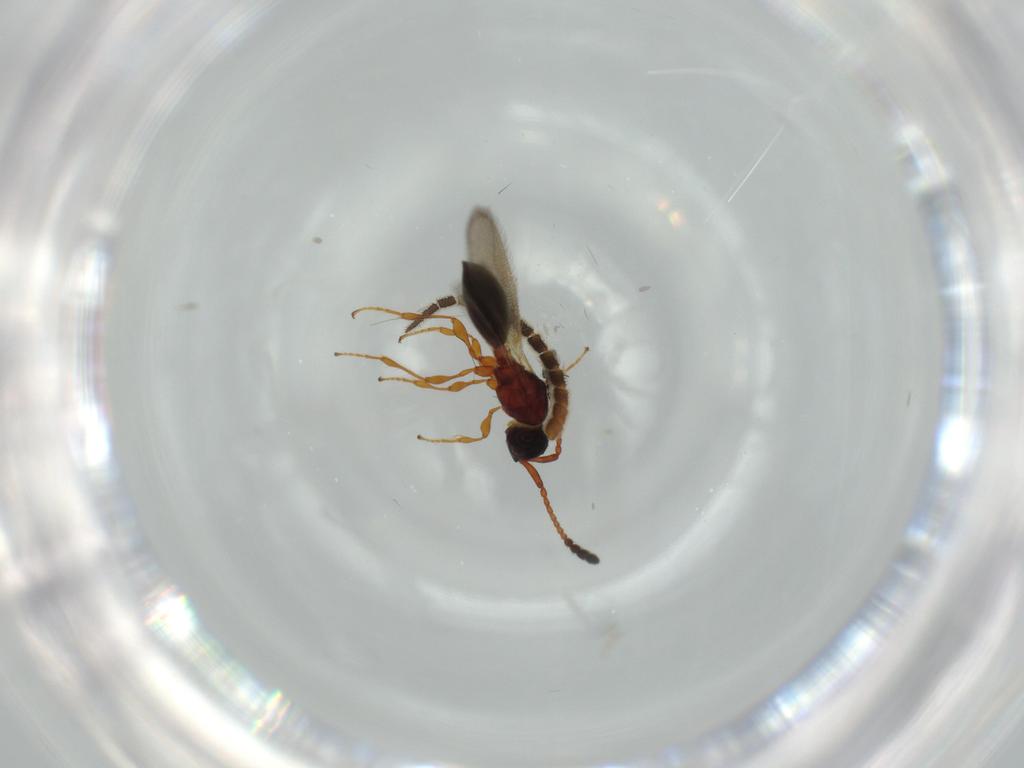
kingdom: Animalia
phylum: Arthropoda
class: Insecta
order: Hymenoptera
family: Diapriidae
